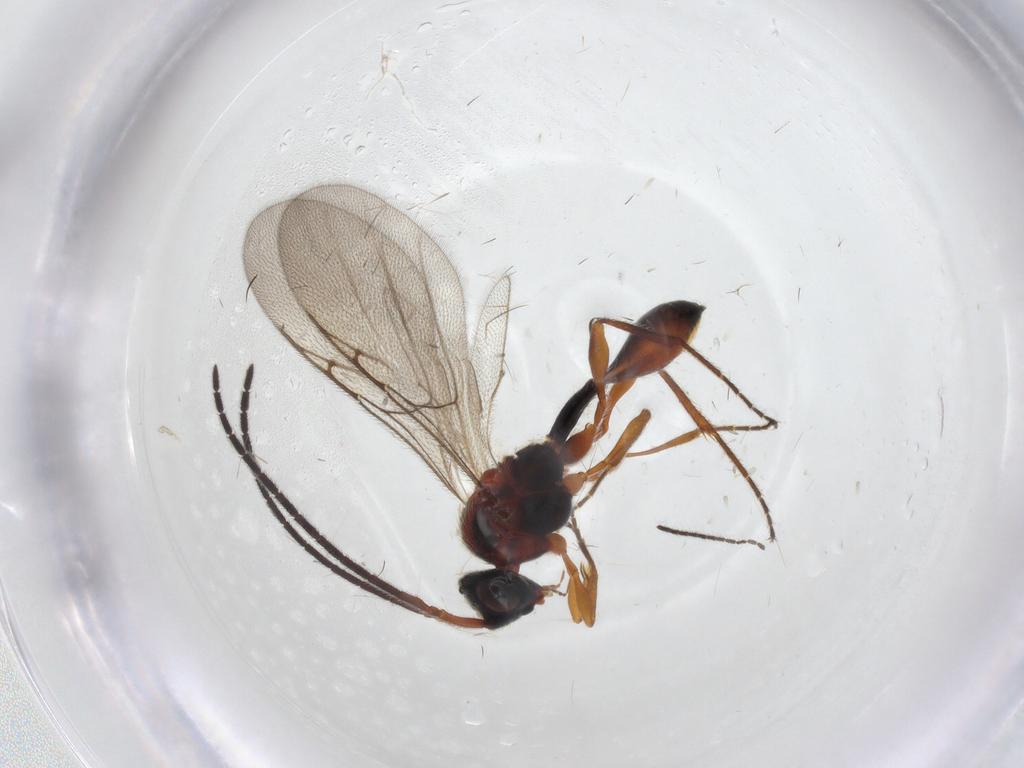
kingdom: Animalia
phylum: Arthropoda
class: Insecta
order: Hymenoptera
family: Diapriidae
